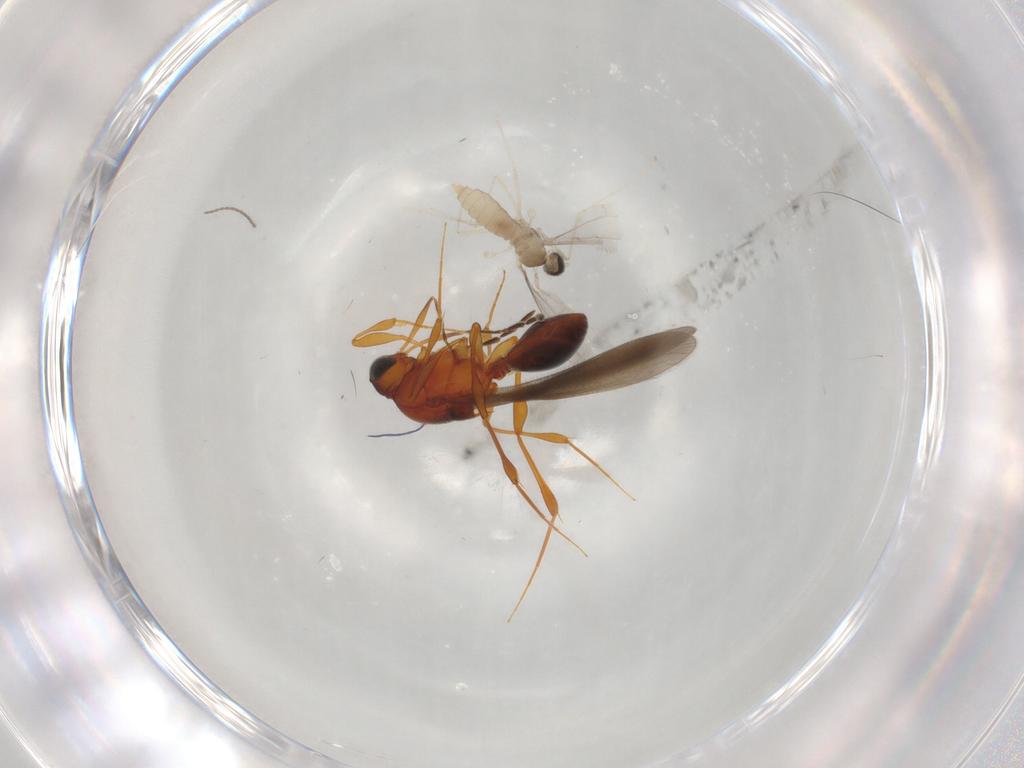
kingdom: Animalia
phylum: Arthropoda
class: Insecta
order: Diptera
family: Cecidomyiidae
